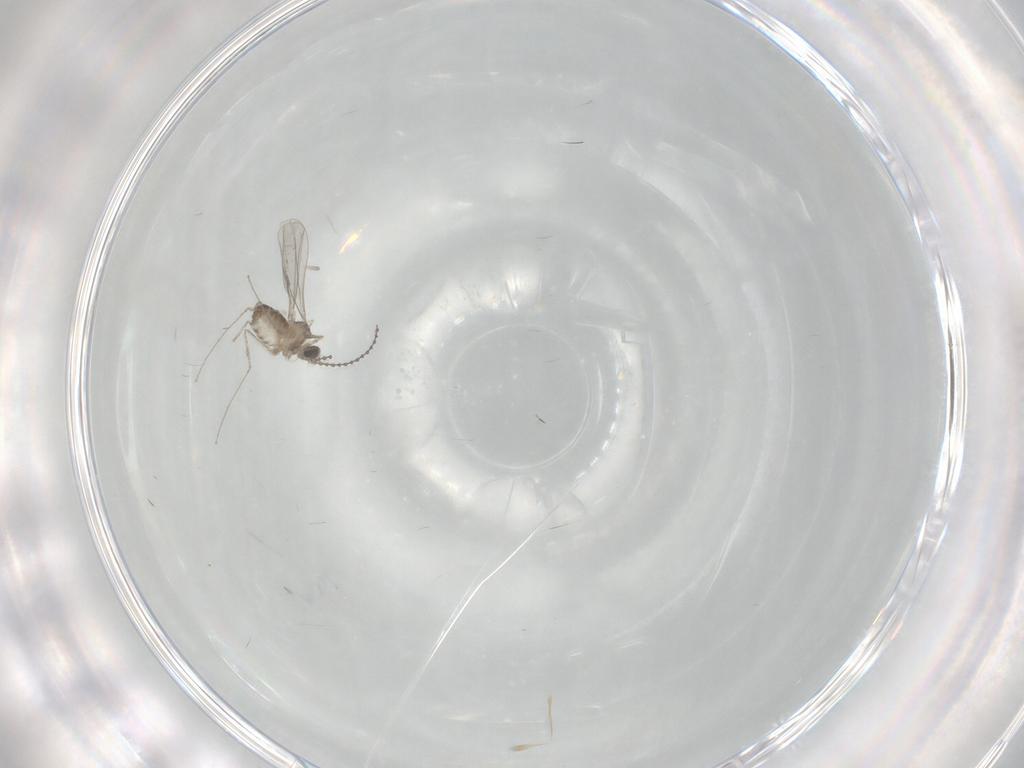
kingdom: Animalia
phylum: Arthropoda
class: Insecta
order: Diptera
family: Cecidomyiidae
